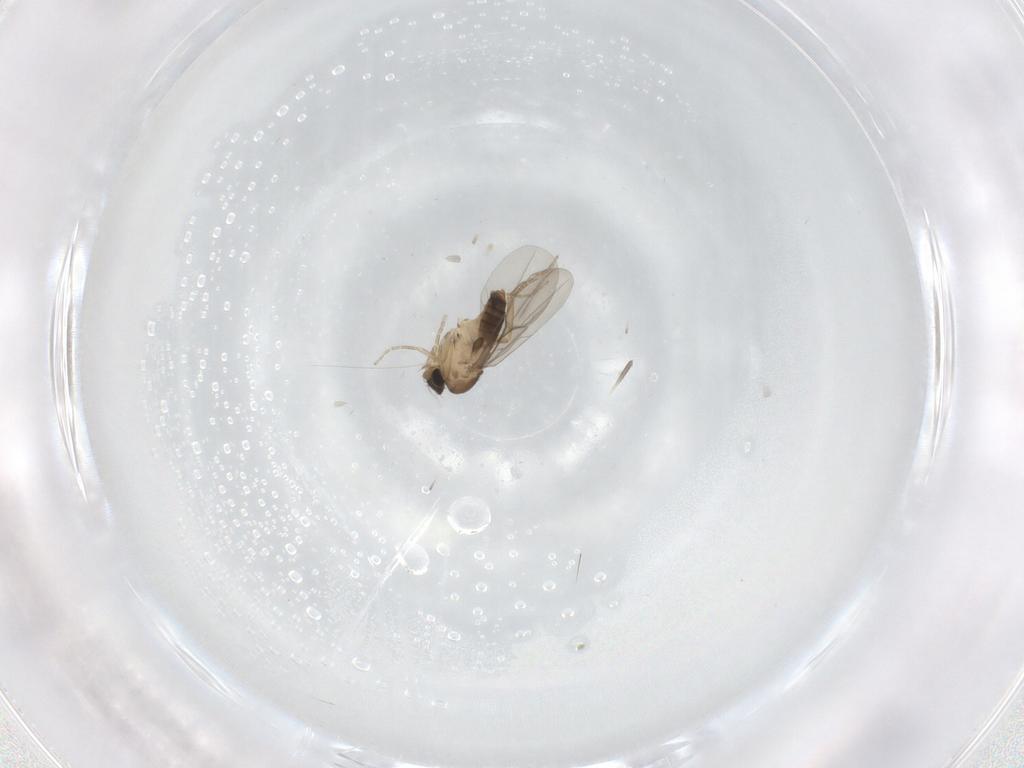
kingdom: Animalia
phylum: Arthropoda
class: Insecta
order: Diptera
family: Phoridae
